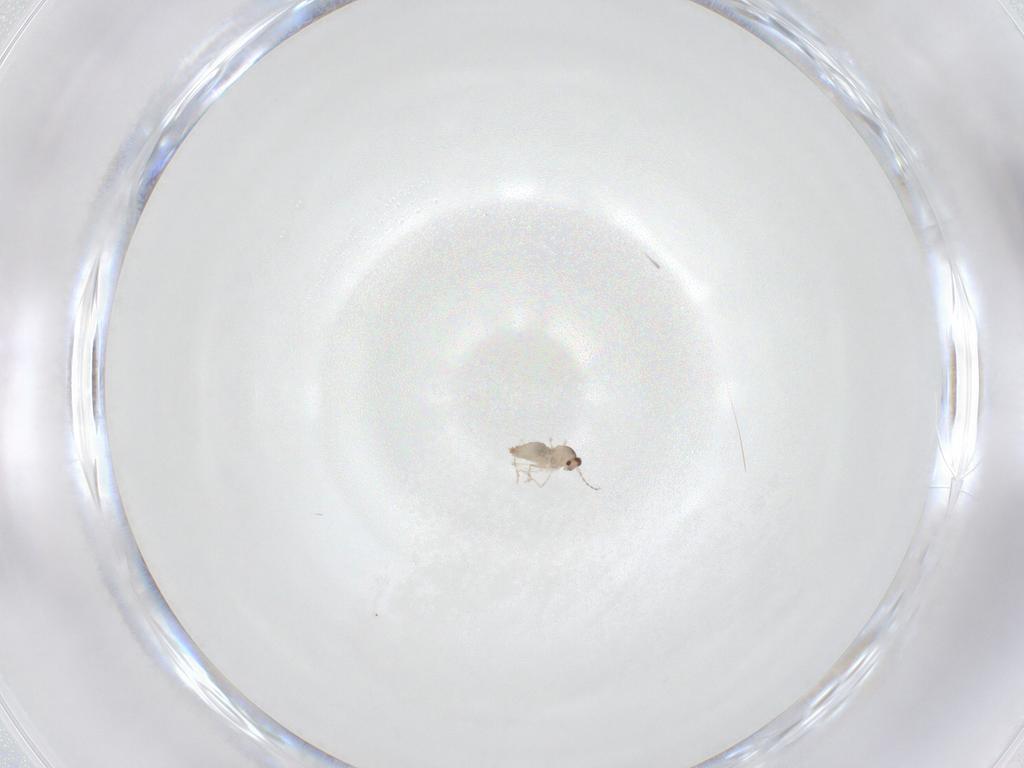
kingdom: Animalia
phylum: Arthropoda
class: Insecta
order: Diptera
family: Cecidomyiidae
